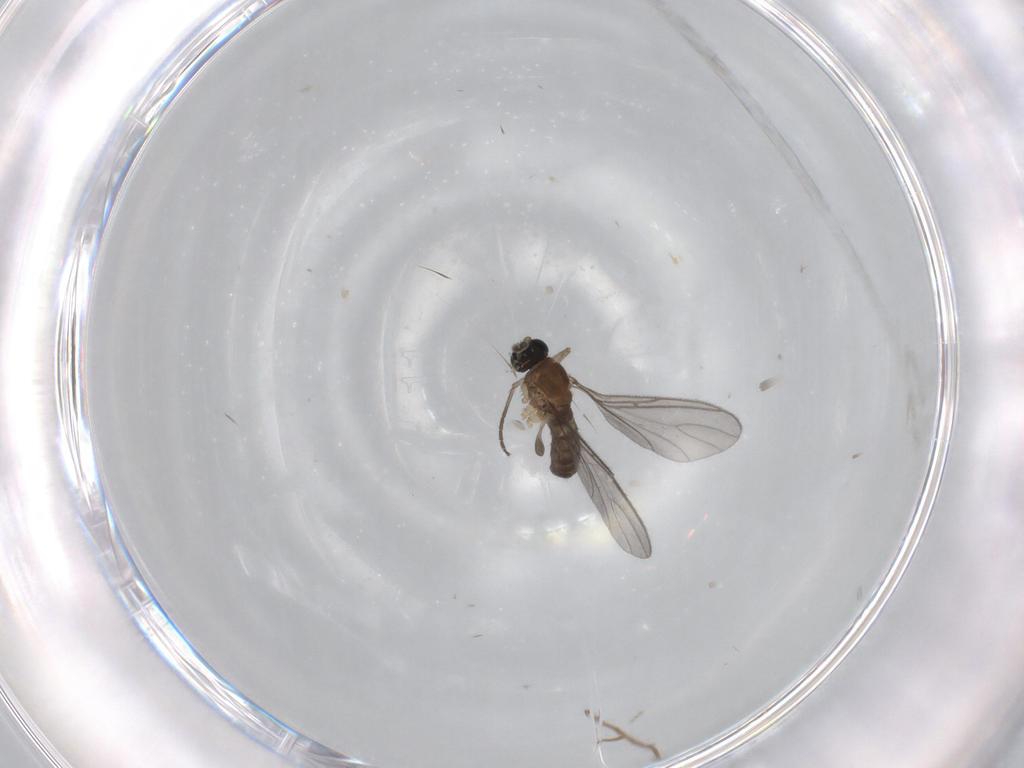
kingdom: Animalia
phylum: Arthropoda
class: Insecta
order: Diptera
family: Sciaridae
